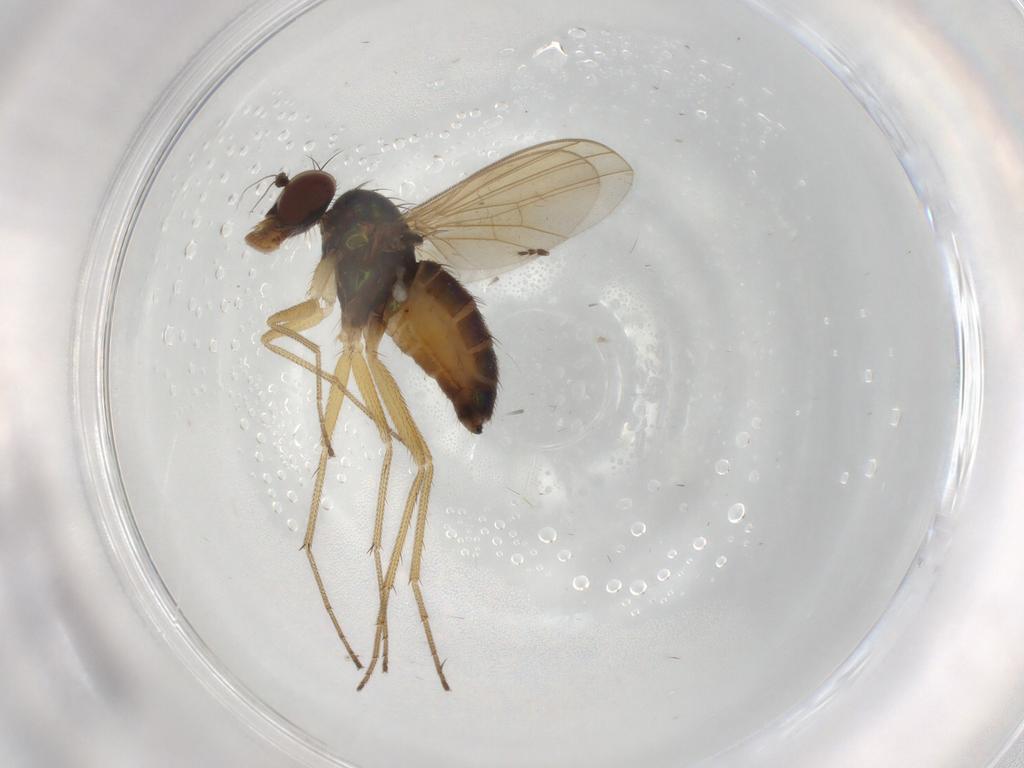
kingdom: Animalia
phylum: Arthropoda
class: Insecta
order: Diptera
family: Dolichopodidae
